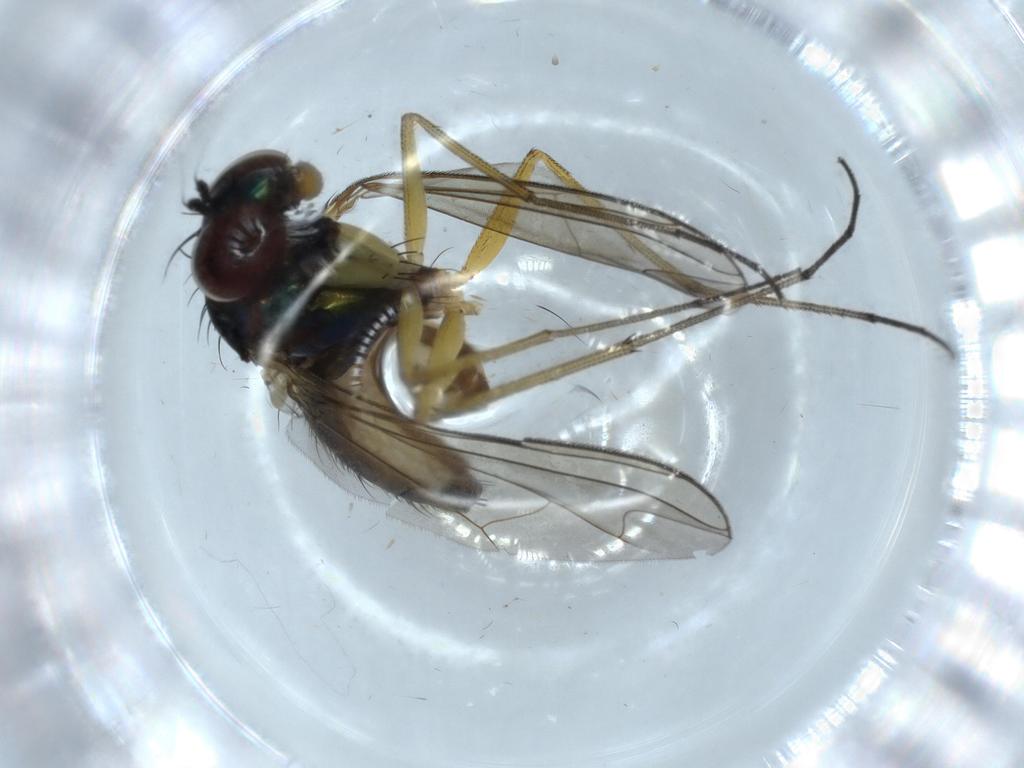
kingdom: Animalia
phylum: Arthropoda
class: Insecta
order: Diptera
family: Dolichopodidae
